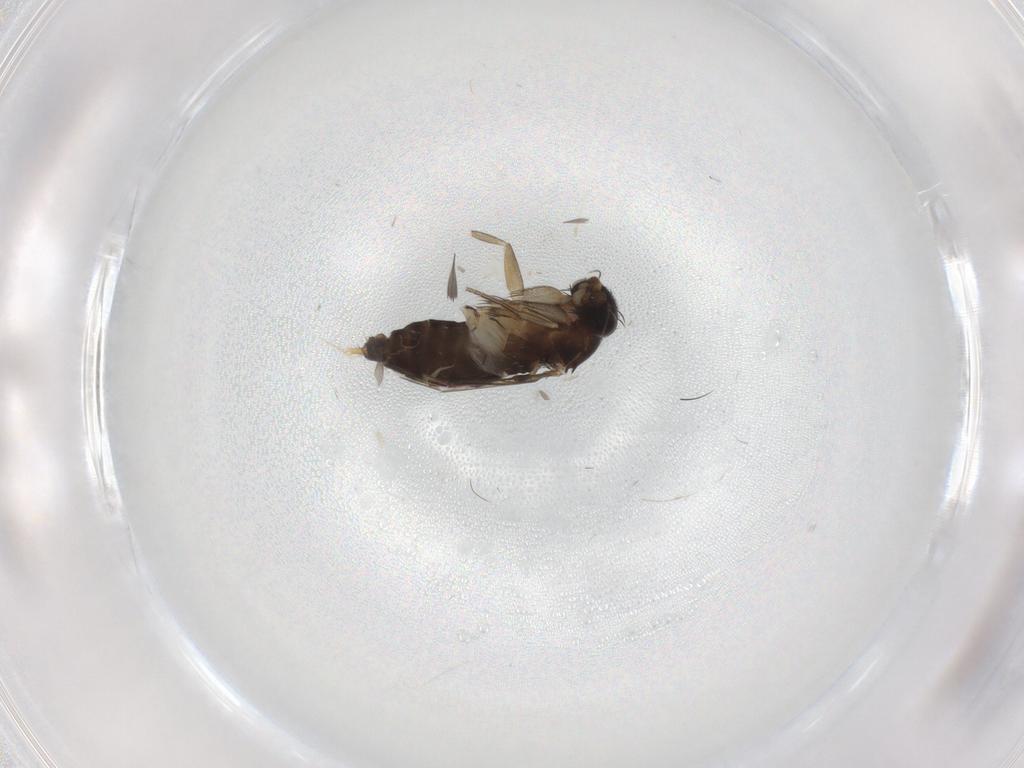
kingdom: Animalia
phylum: Arthropoda
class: Insecta
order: Diptera
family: Phoridae
